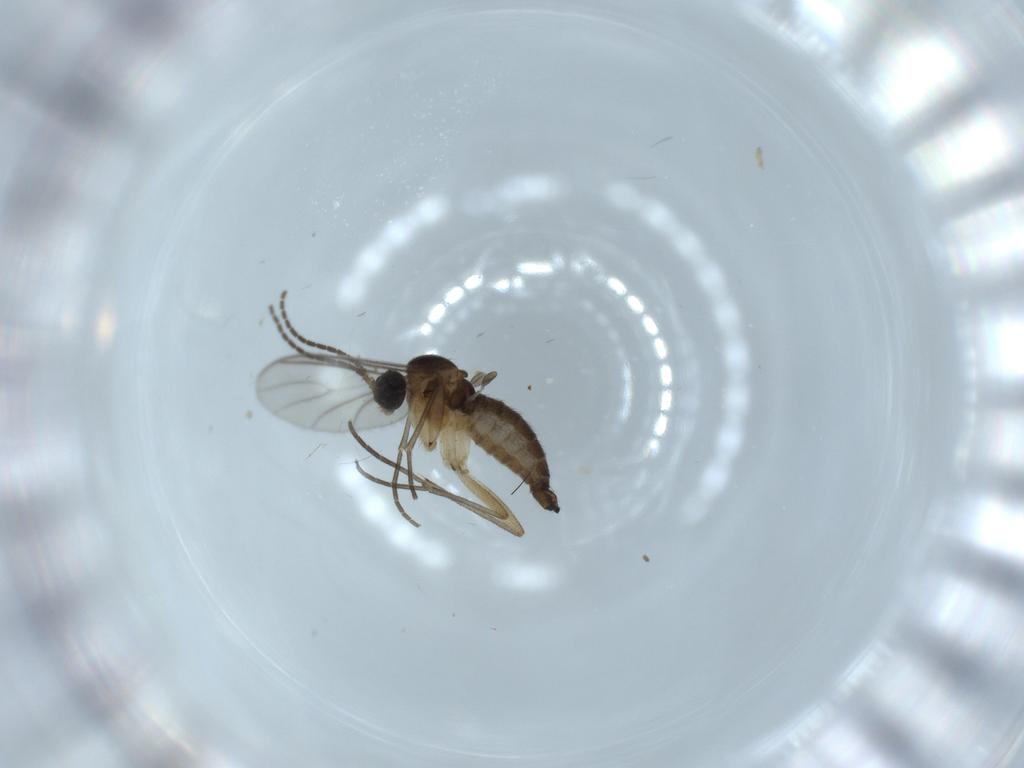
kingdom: Animalia
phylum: Arthropoda
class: Insecta
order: Diptera
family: Sciaridae
